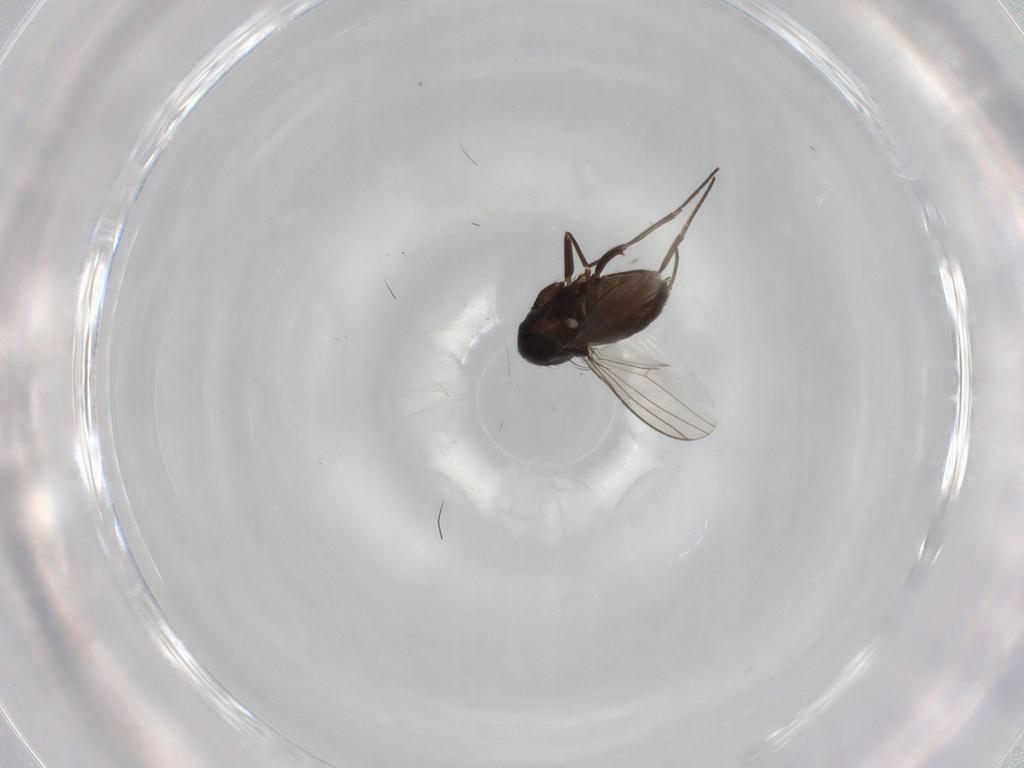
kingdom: Animalia
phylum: Arthropoda
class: Insecta
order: Diptera
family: Dolichopodidae
